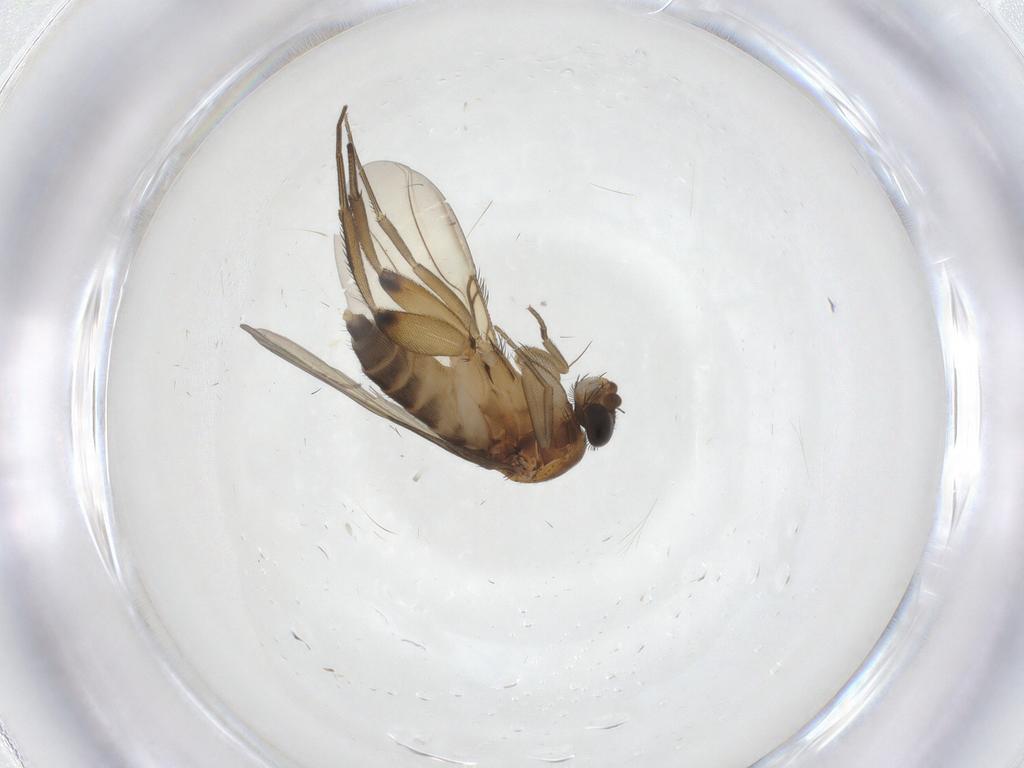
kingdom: Animalia
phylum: Arthropoda
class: Insecta
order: Diptera
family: Phoridae
